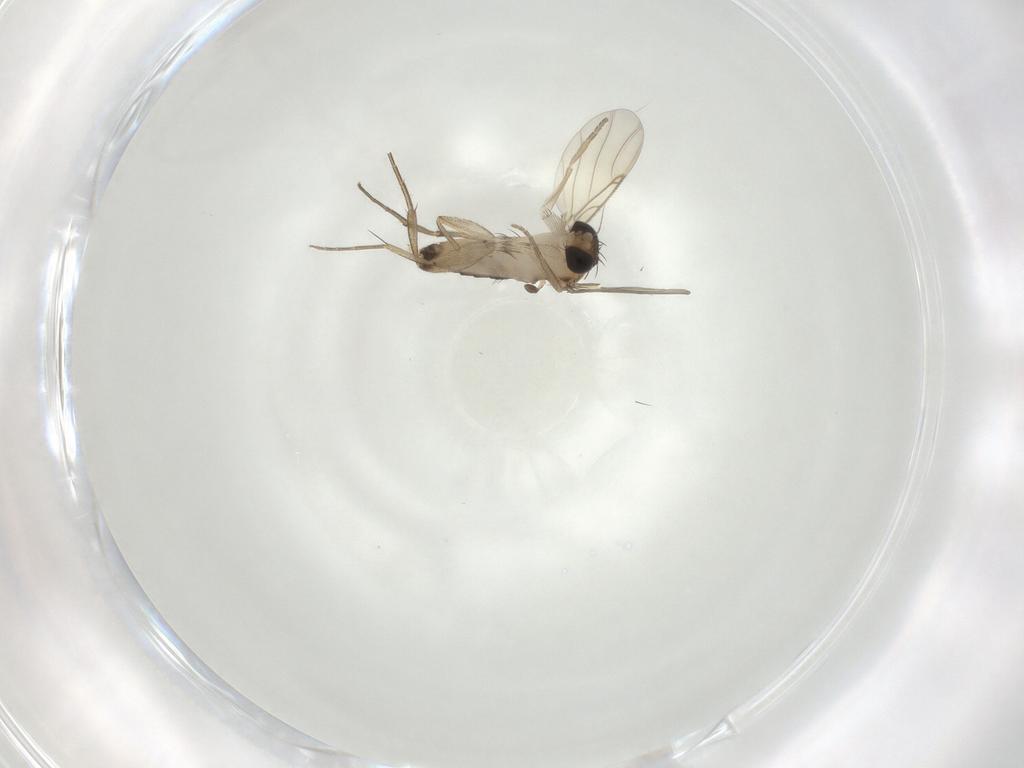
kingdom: Animalia
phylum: Arthropoda
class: Insecta
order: Diptera
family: Phoridae
